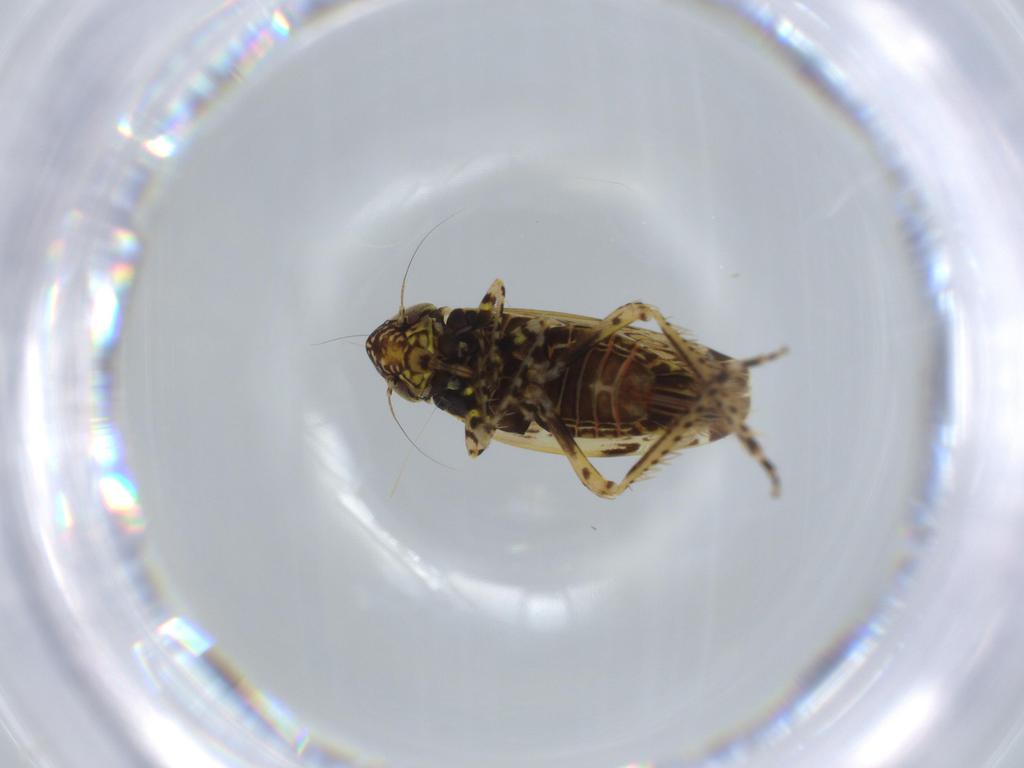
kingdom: Animalia
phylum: Arthropoda
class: Insecta
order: Hemiptera
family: Cicadellidae
